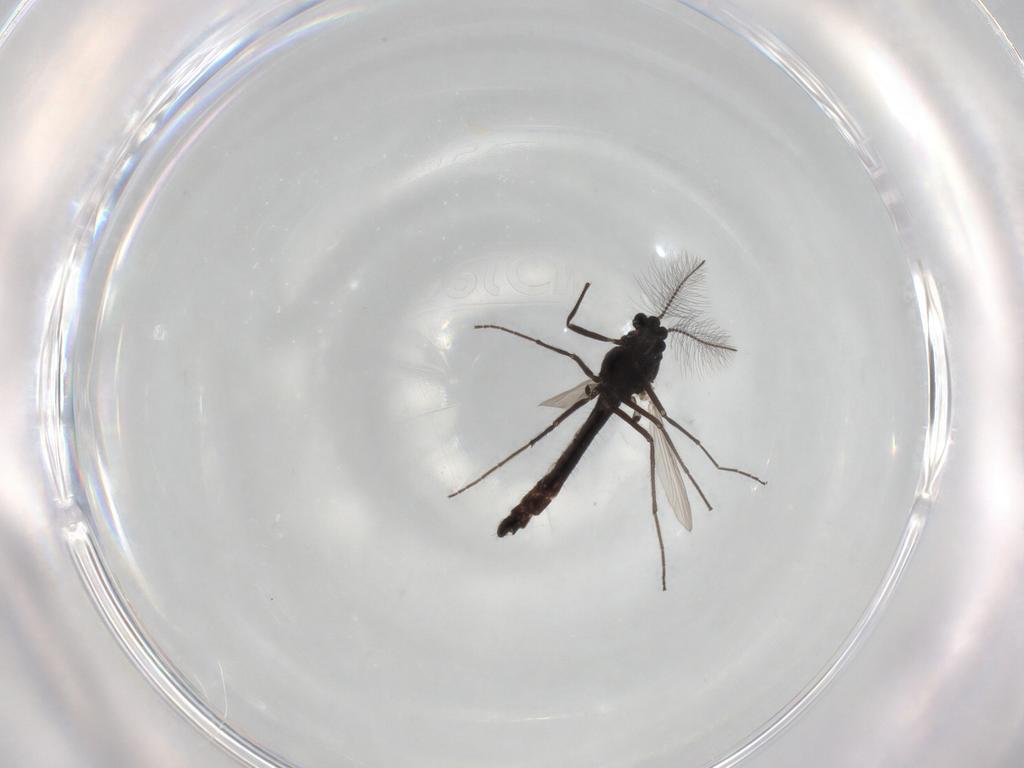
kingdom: Animalia
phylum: Arthropoda
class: Insecta
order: Diptera
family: Chironomidae
